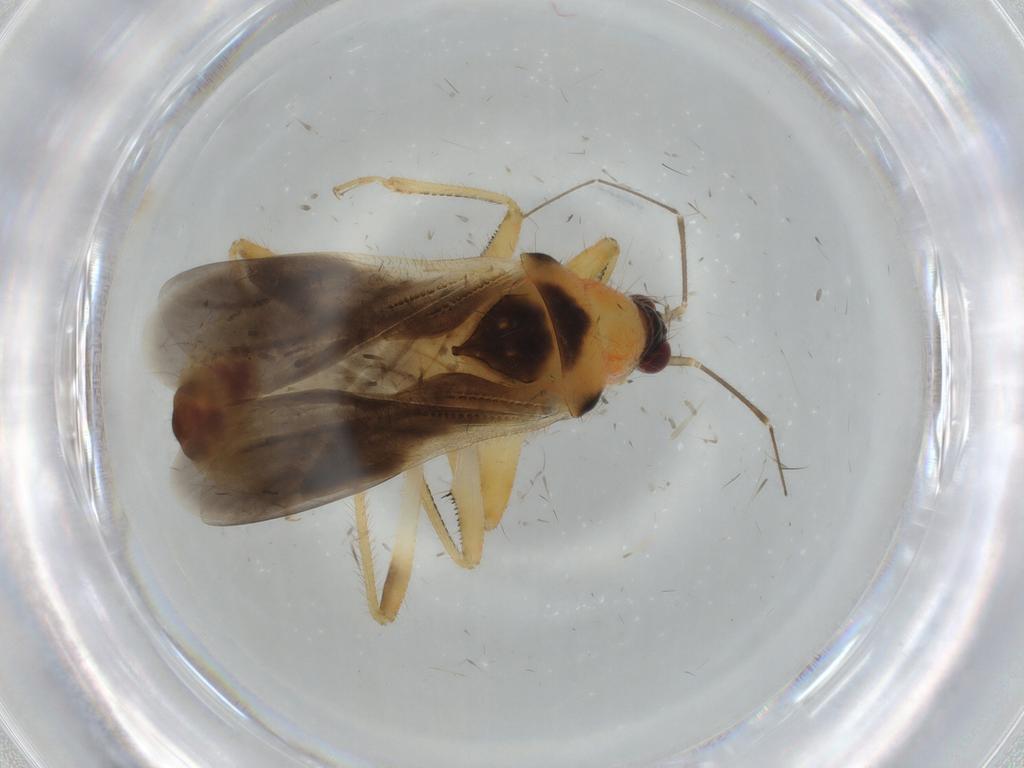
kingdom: Animalia
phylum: Arthropoda
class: Insecta
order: Hemiptera
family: Nabidae
